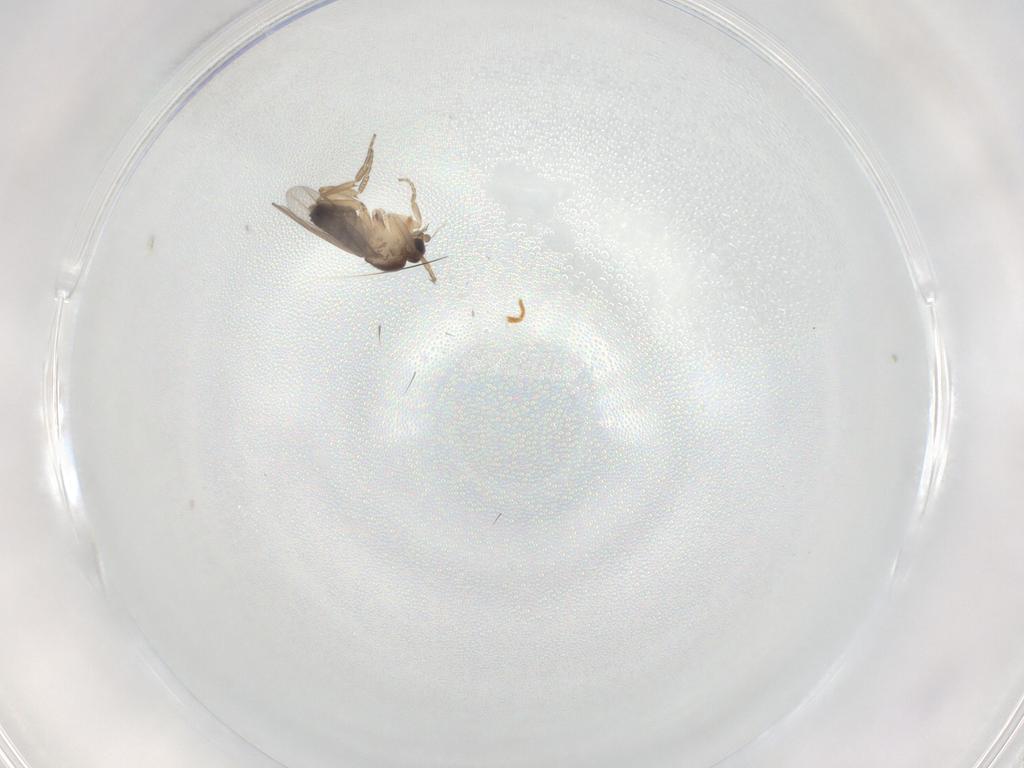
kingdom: Animalia
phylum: Arthropoda
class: Insecta
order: Diptera
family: Phoridae
